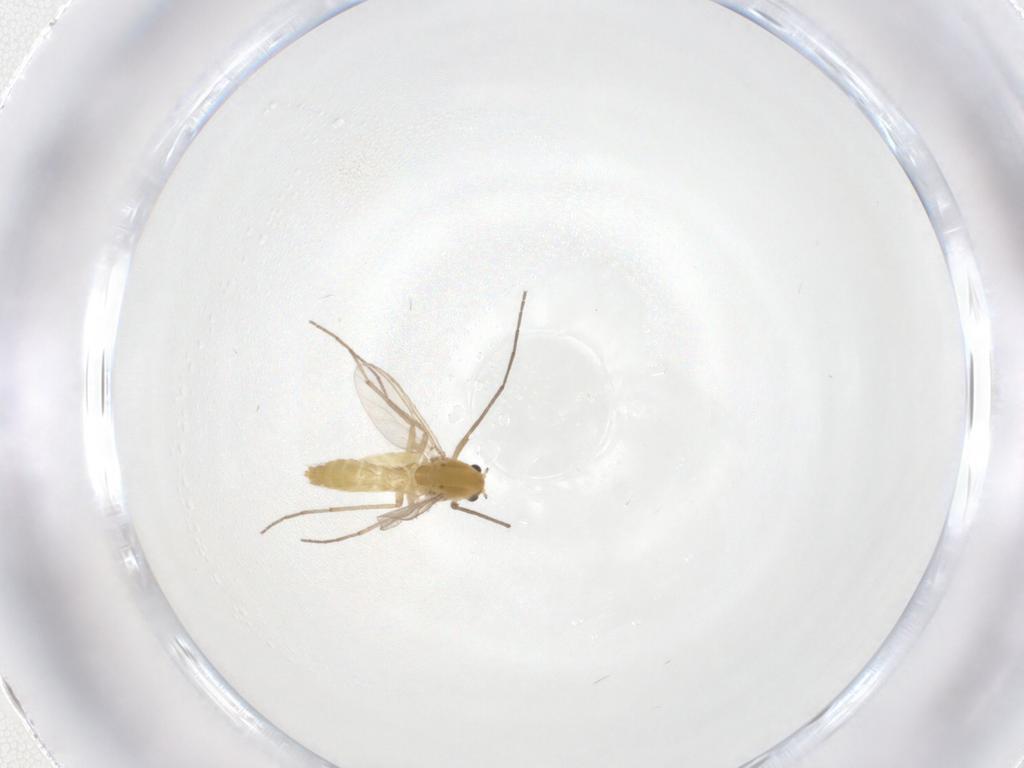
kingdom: Animalia
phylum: Arthropoda
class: Insecta
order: Diptera
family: Chironomidae
